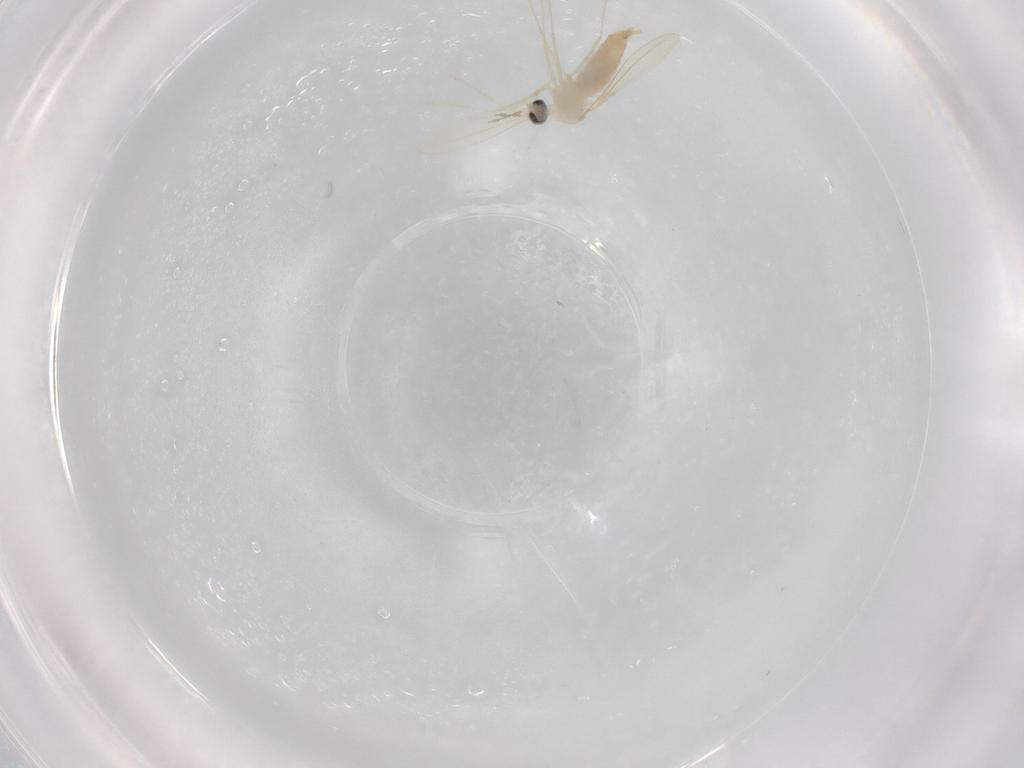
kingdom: Animalia
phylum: Arthropoda
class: Insecta
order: Diptera
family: Cecidomyiidae
